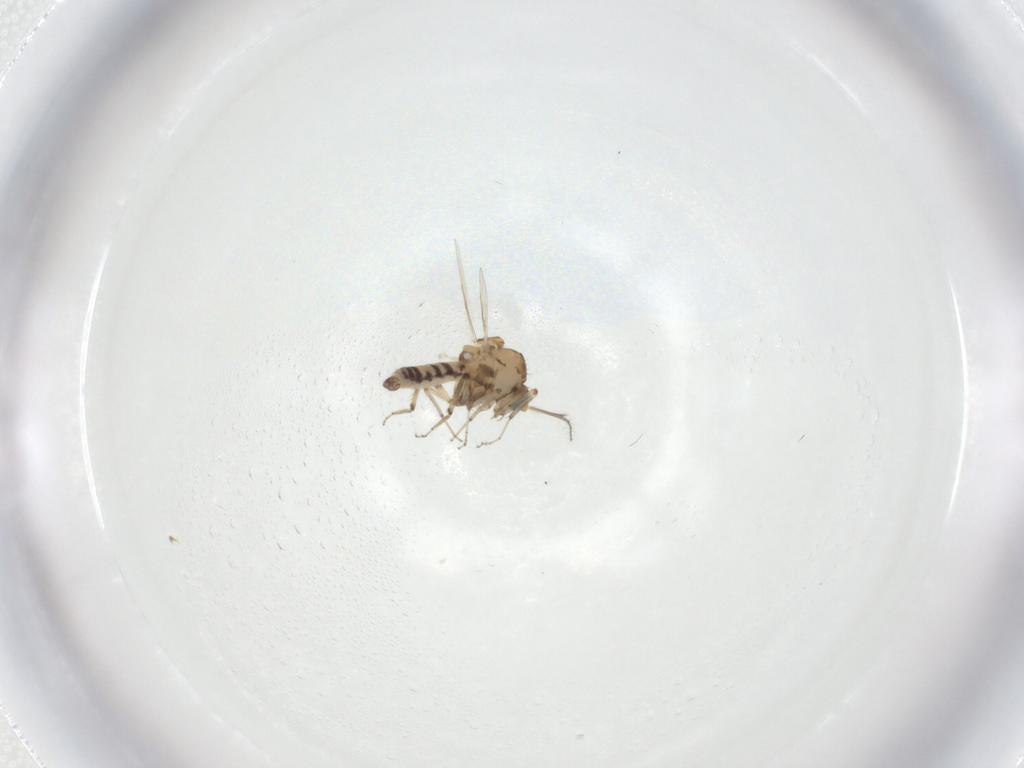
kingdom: Animalia
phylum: Arthropoda
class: Insecta
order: Diptera
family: Ceratopogonidae
